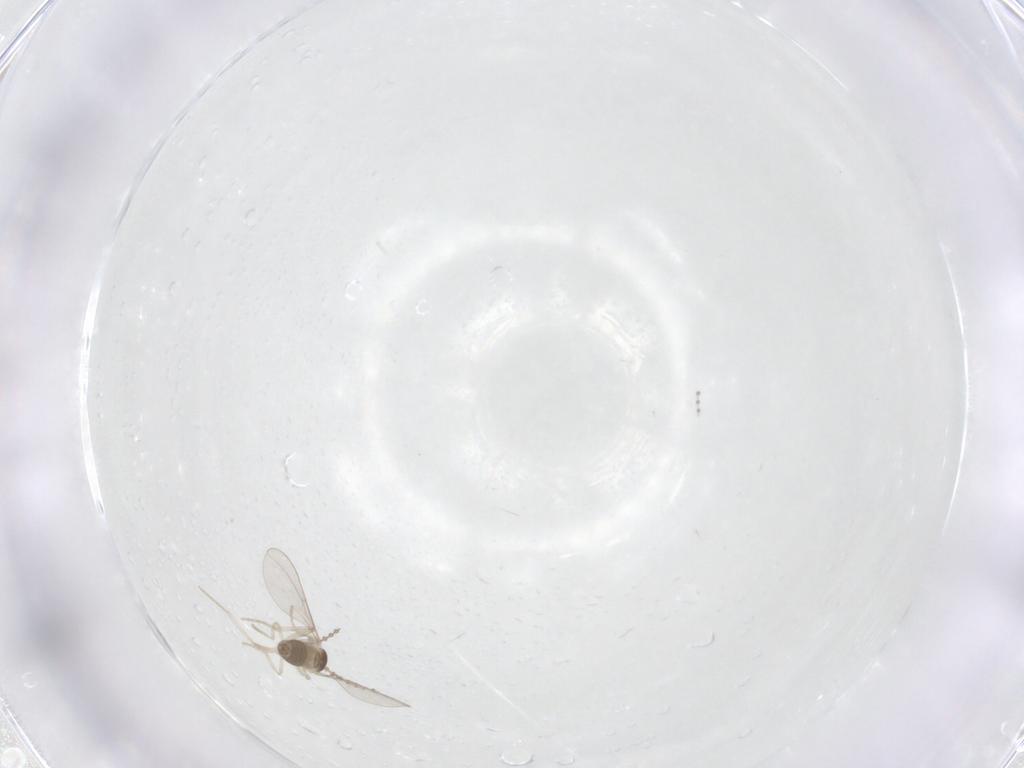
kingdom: Animalia
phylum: Arthropoda
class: Insecta
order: Diptera
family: Cecidomyiidae
